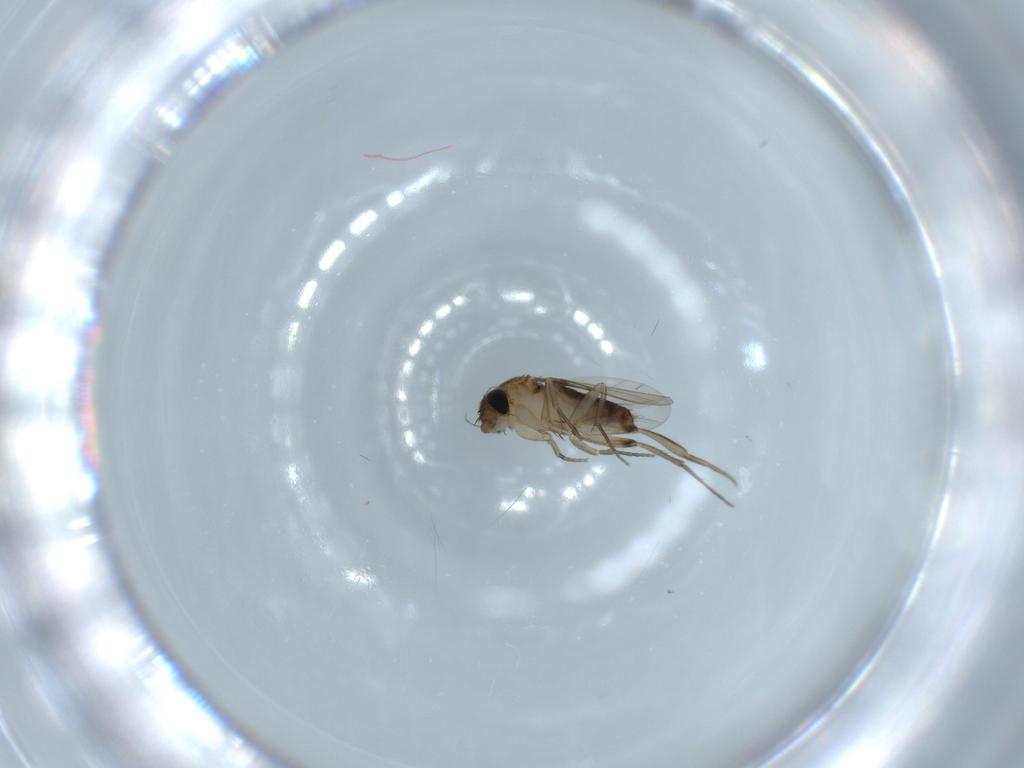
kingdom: Animalia
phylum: Arthropoda
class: Insecta
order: Diptera
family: Phoridae
